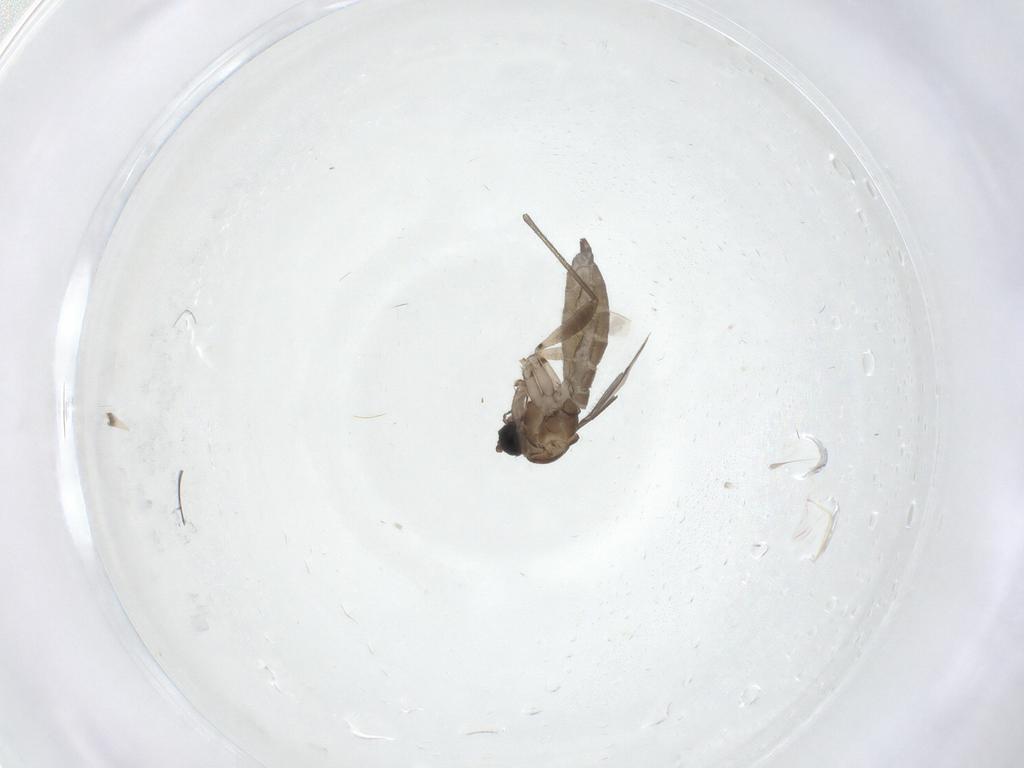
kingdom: Animalia
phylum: Arthropoda
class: Insecta
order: Diptera
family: Sciaridae
